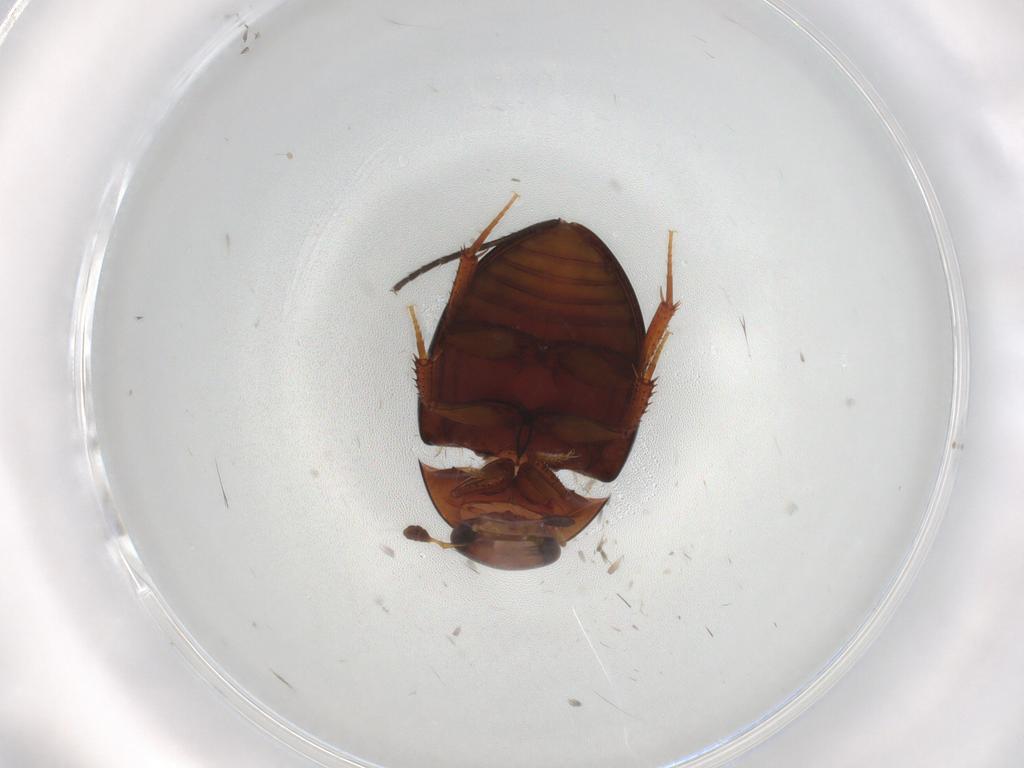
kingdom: Animalia
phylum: Arthropoda
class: Insecta
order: Coleoptera
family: Hydrophilidae
